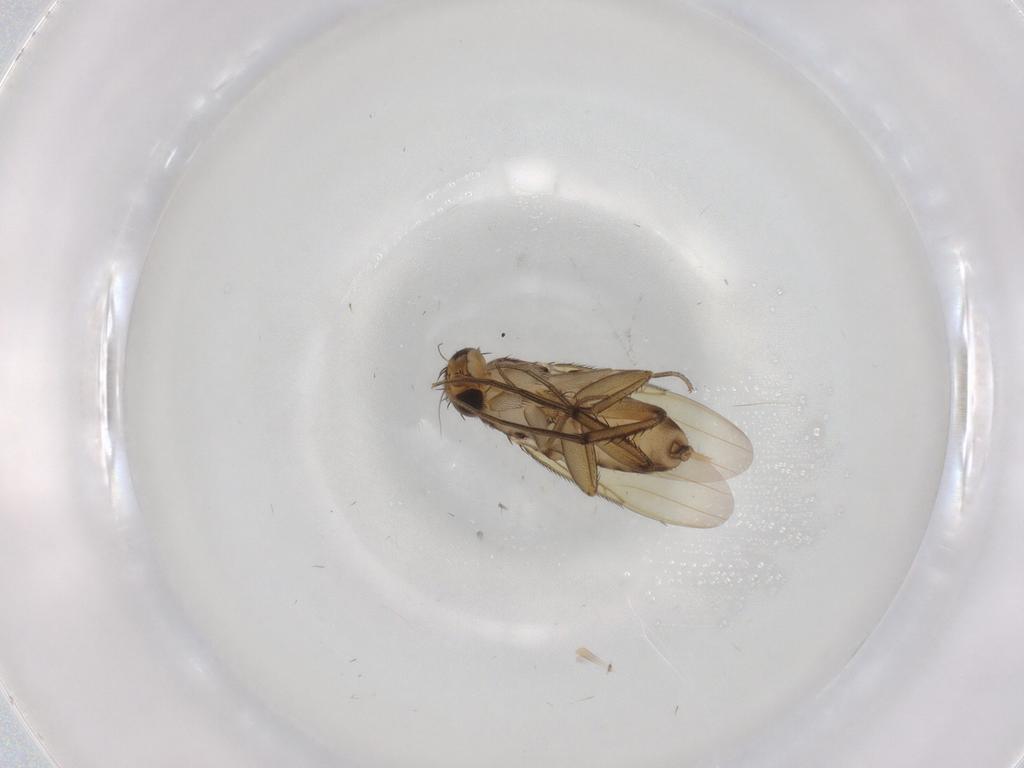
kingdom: Animalia
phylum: Arthropoda
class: Insecta
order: Diptera
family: Phoridae
